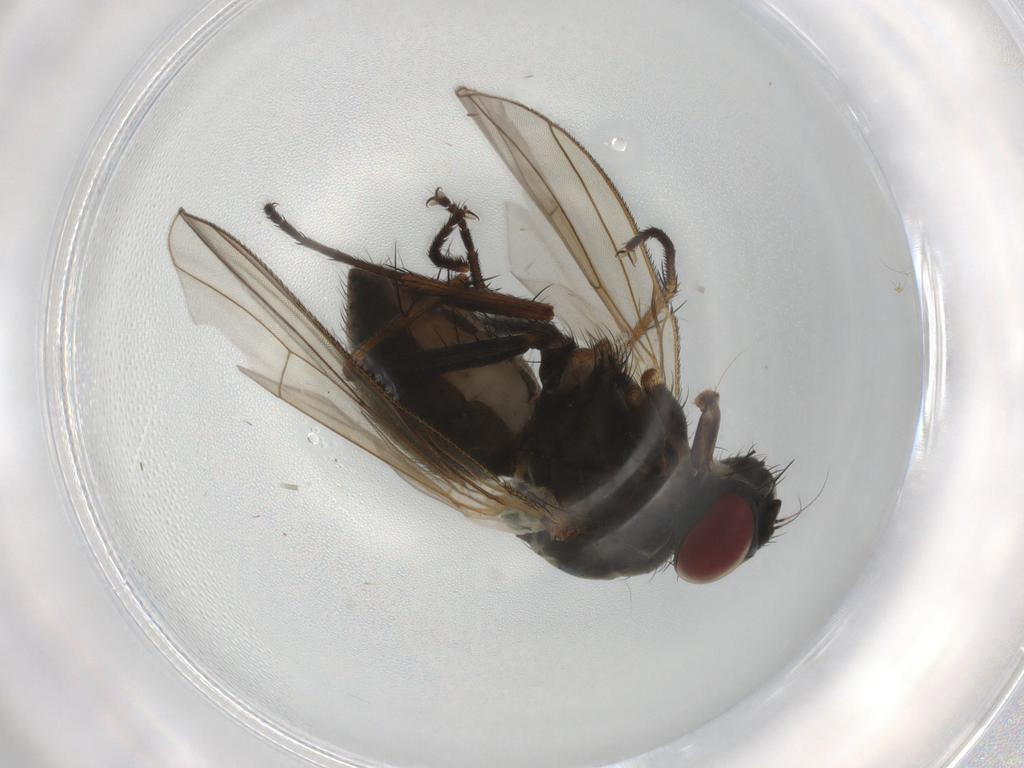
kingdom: Animalia
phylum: Arthropoda
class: Insecta
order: Diptera
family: Muscidae
